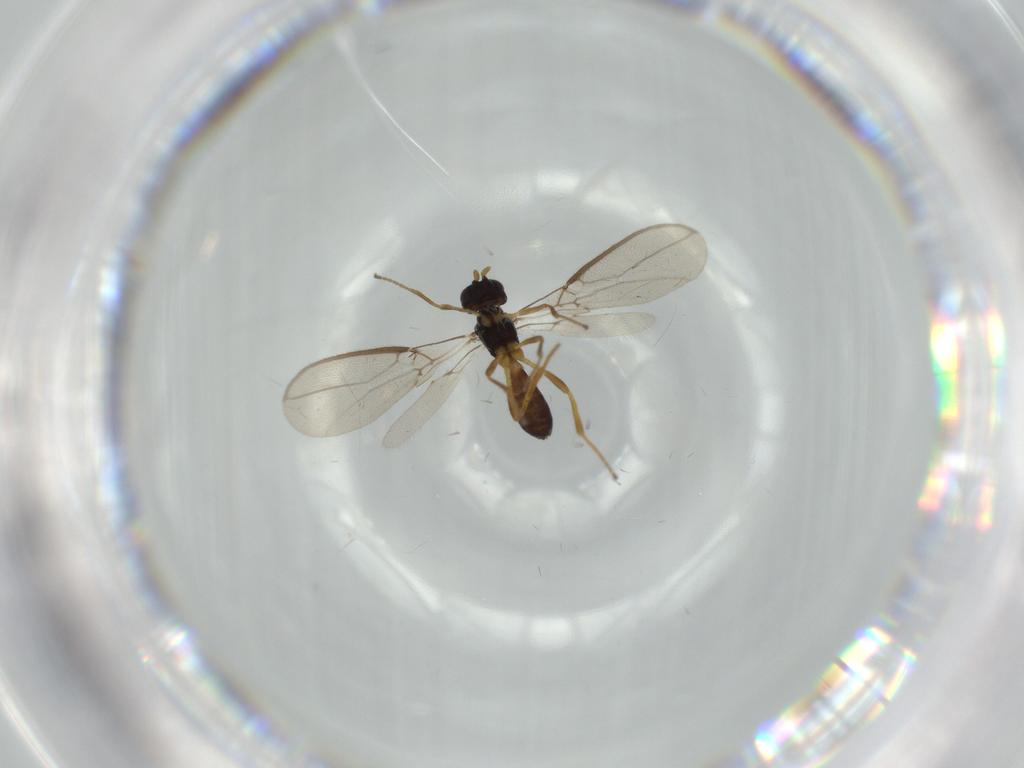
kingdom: Animalia
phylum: Arthropoda
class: Insecta
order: Hymenoptera
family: Braconidae
